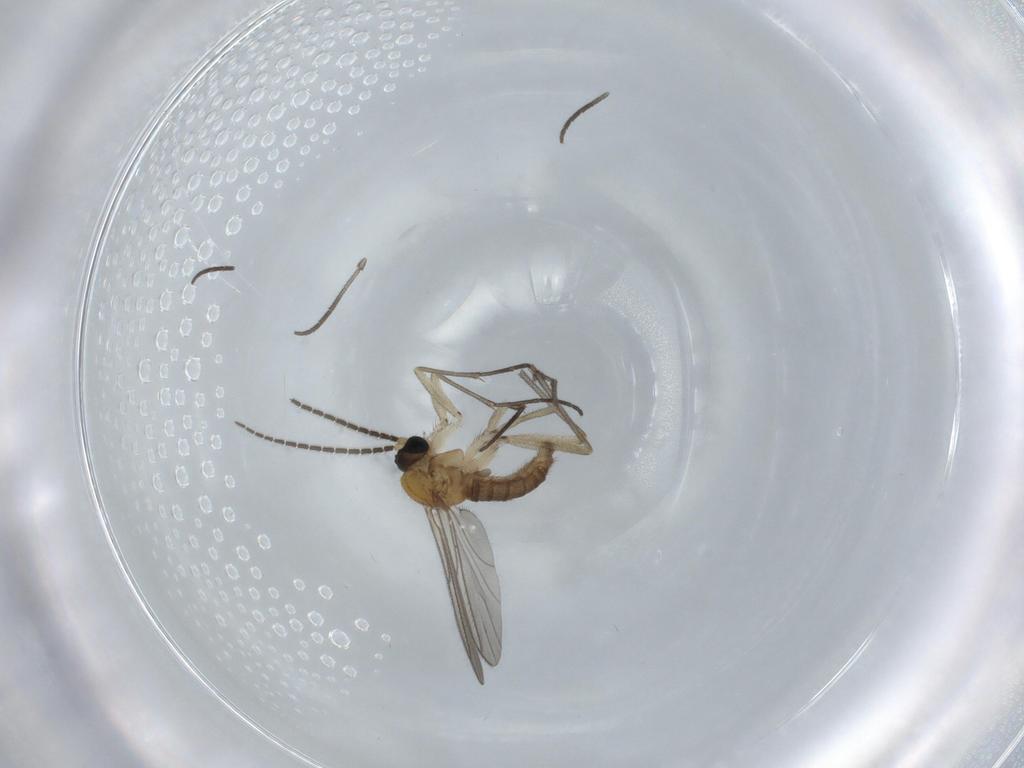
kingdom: Animalia
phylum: Arthropoda
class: Insecta
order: Diptera
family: Sciaridae
